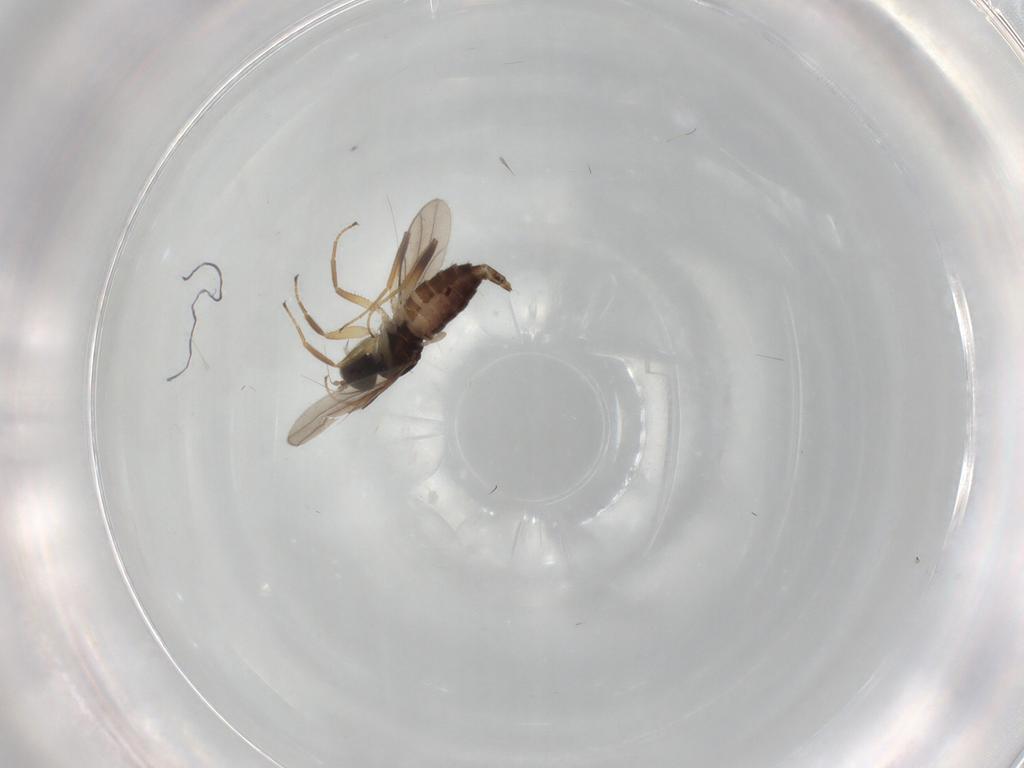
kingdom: Animalia
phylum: Arthropoda
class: Insecta
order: Diptera
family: Hybotidae
